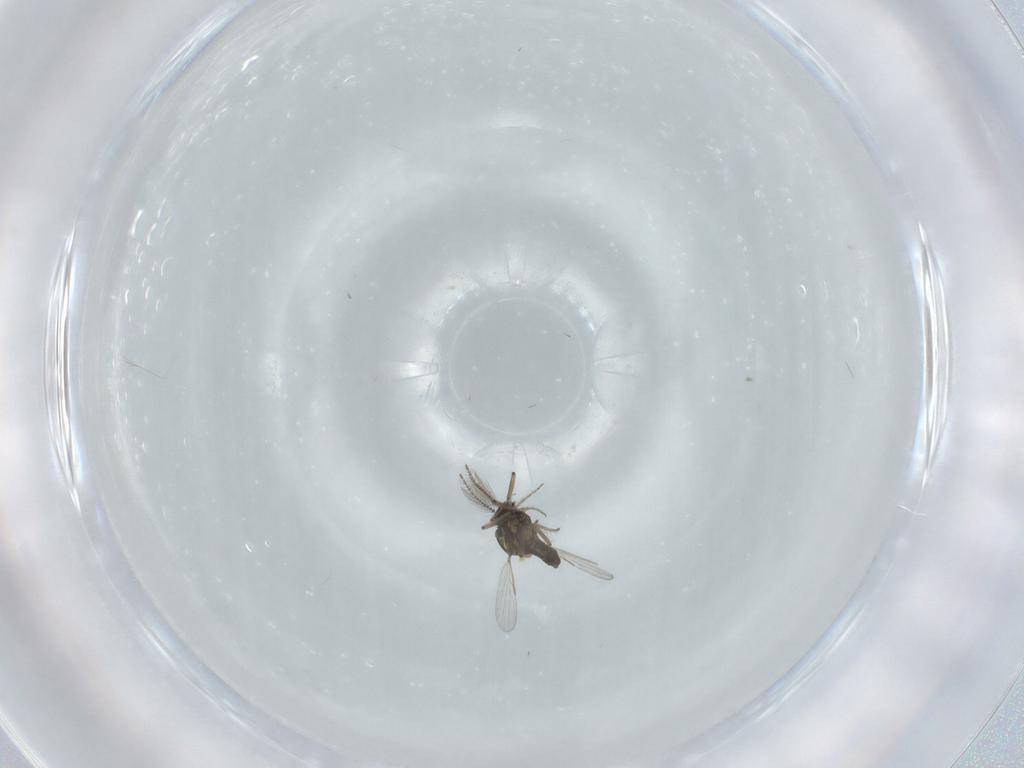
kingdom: Animalia
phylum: Arthropoda
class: Insecta
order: Diptera
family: Ceratopogonidae
